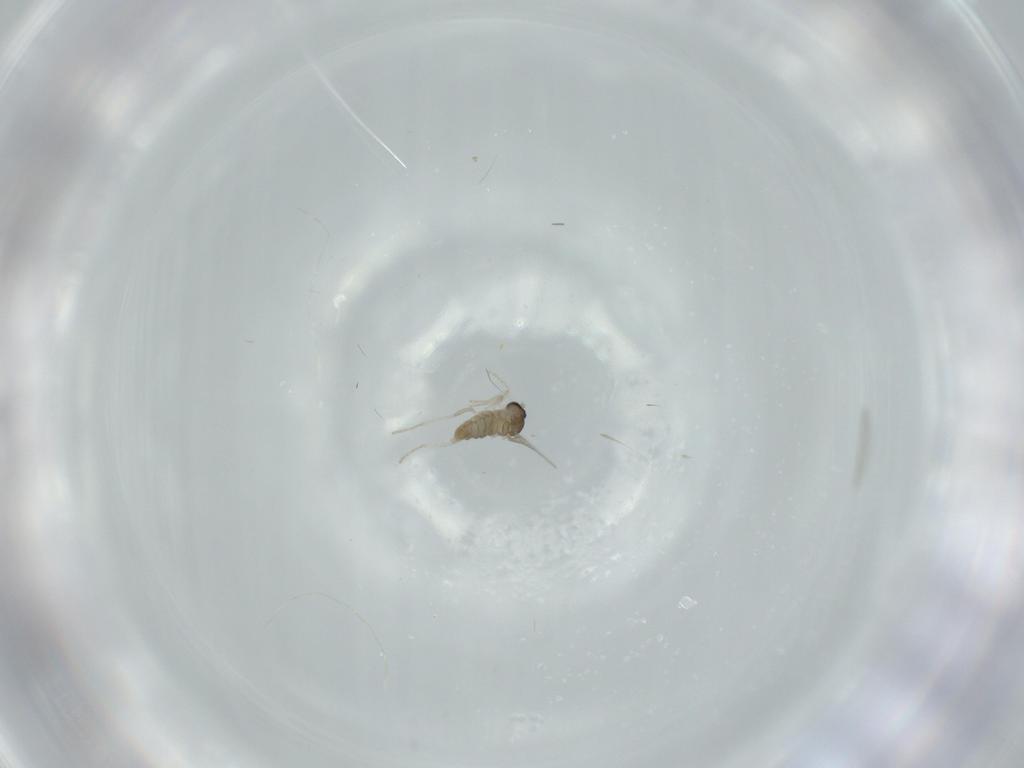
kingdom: Animalia
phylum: Arthropoda
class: Insecta
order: Diptera
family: Cecidomyiidae
